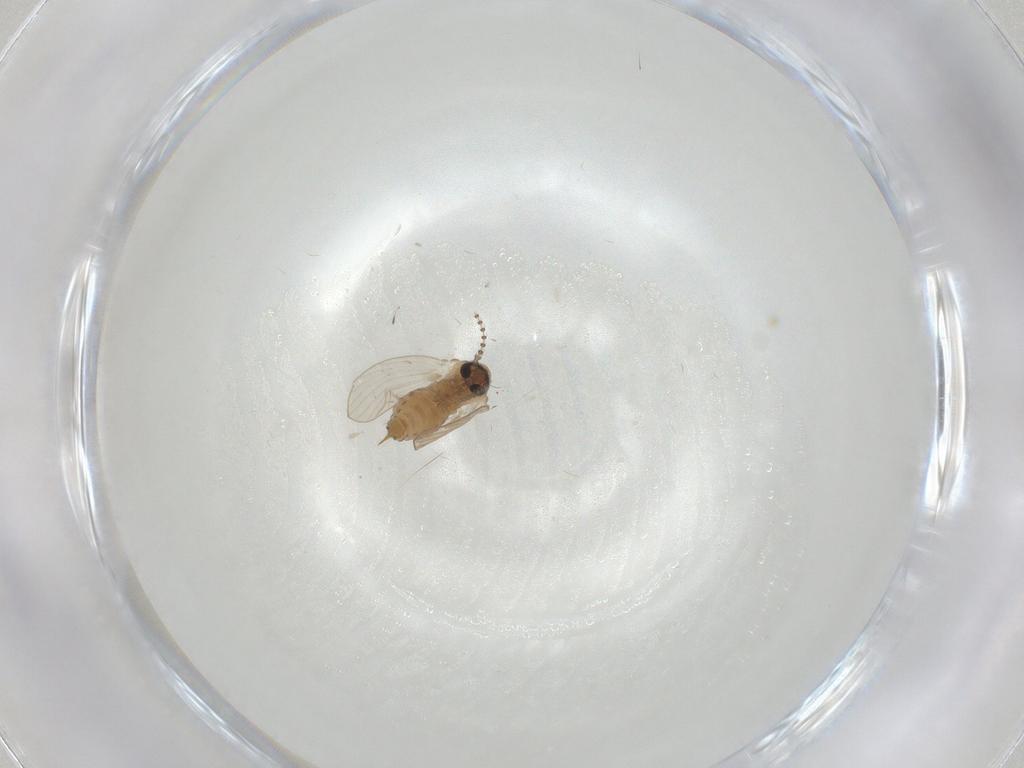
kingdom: Animalia
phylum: Arthropoda
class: Insecta
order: Diptera
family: Psychodidae
